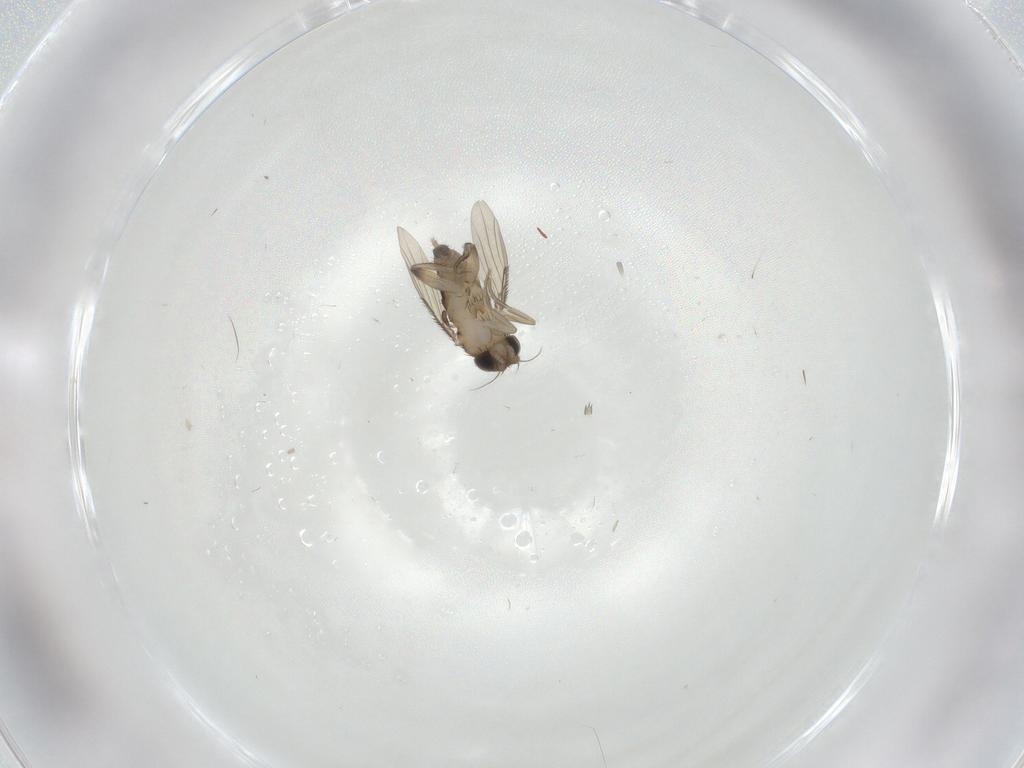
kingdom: Animalia
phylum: Arthropoda
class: Insecta
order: Diptera
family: Phoridae
